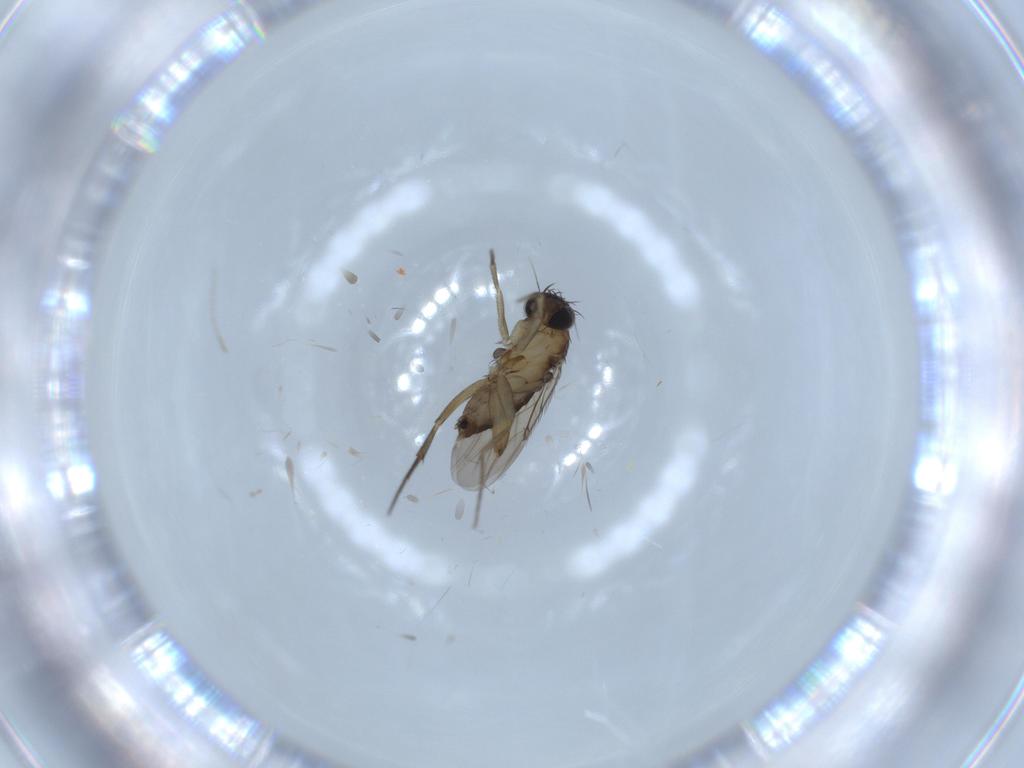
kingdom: Animalia
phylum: Arthropoda
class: Insecta
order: Diptera
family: Phoridae
